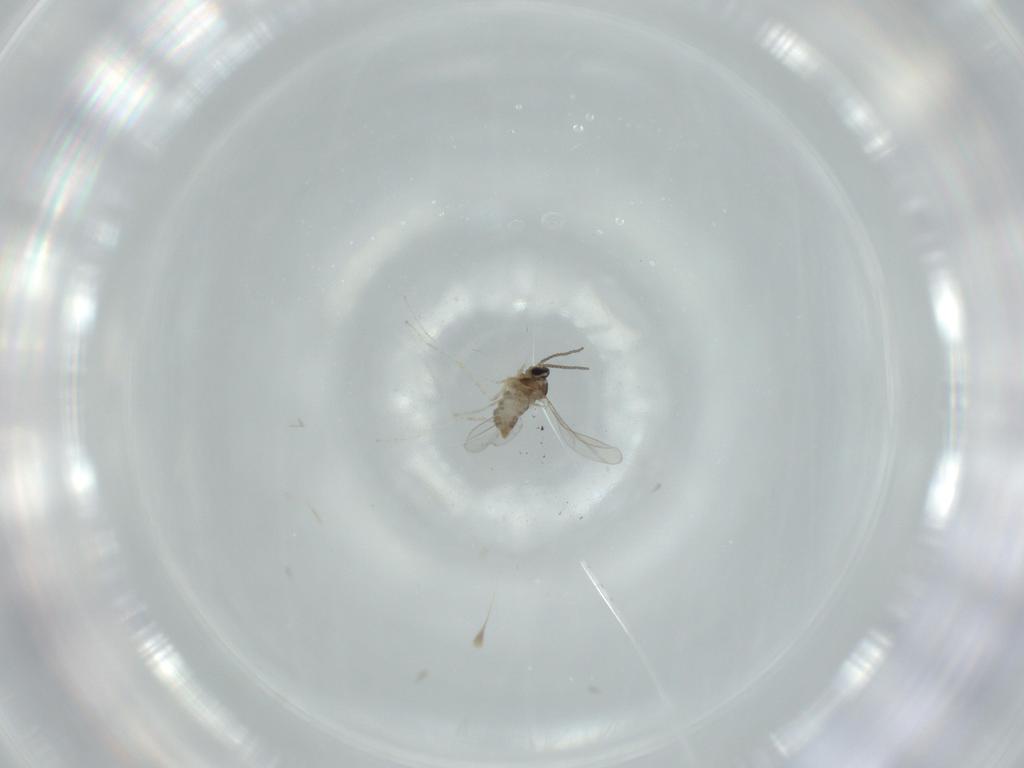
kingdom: Animalia
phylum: Arthropoda
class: Insecta
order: Diptera
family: Cecidomyiidae
